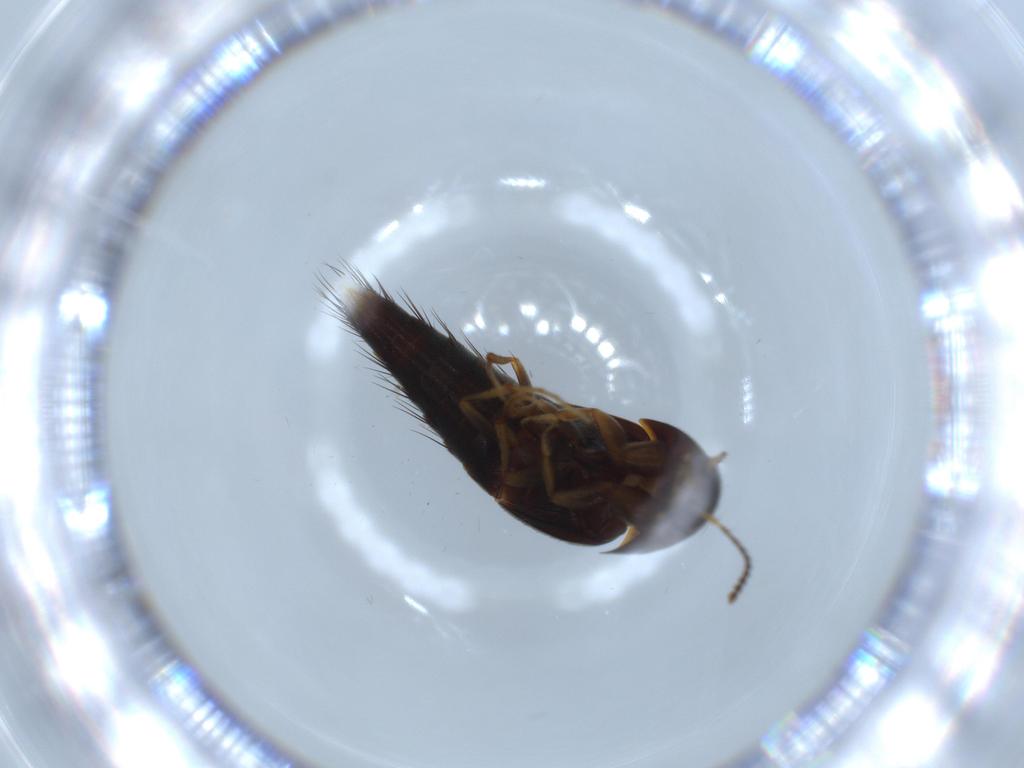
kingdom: Animalia
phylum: Arthropoda
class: Insecta
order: Coleoptera
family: Staphylinidae
